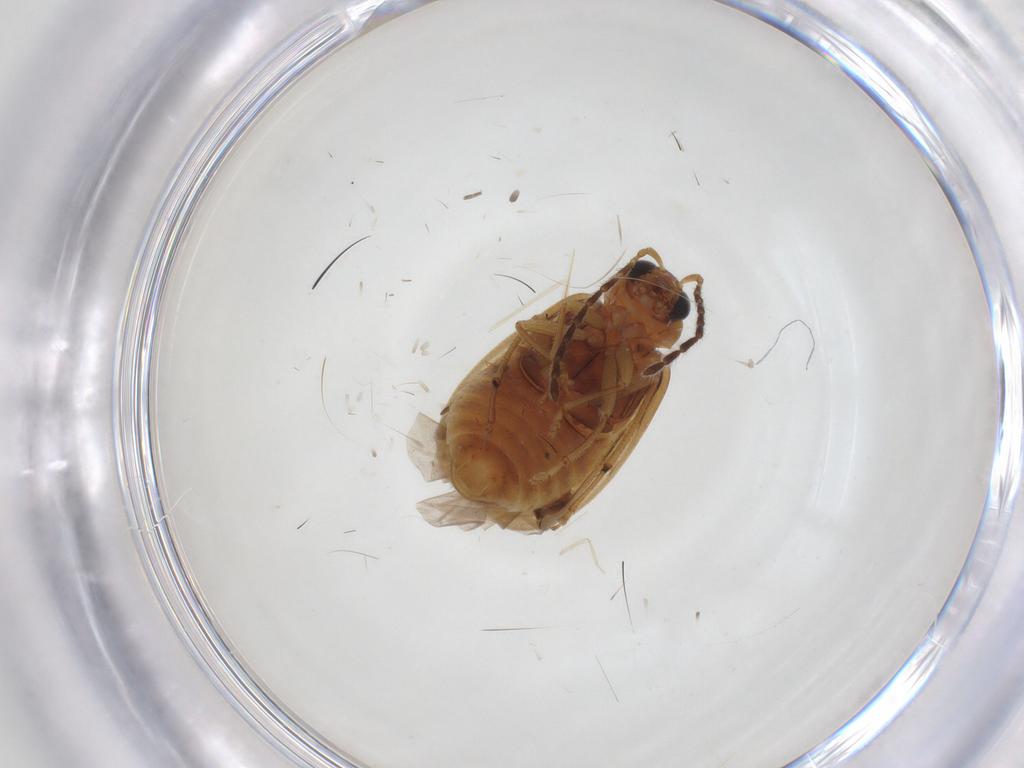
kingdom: Animalia
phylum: Arthropoda
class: Insecta
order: Coleoptera
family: Chrysomelidae
